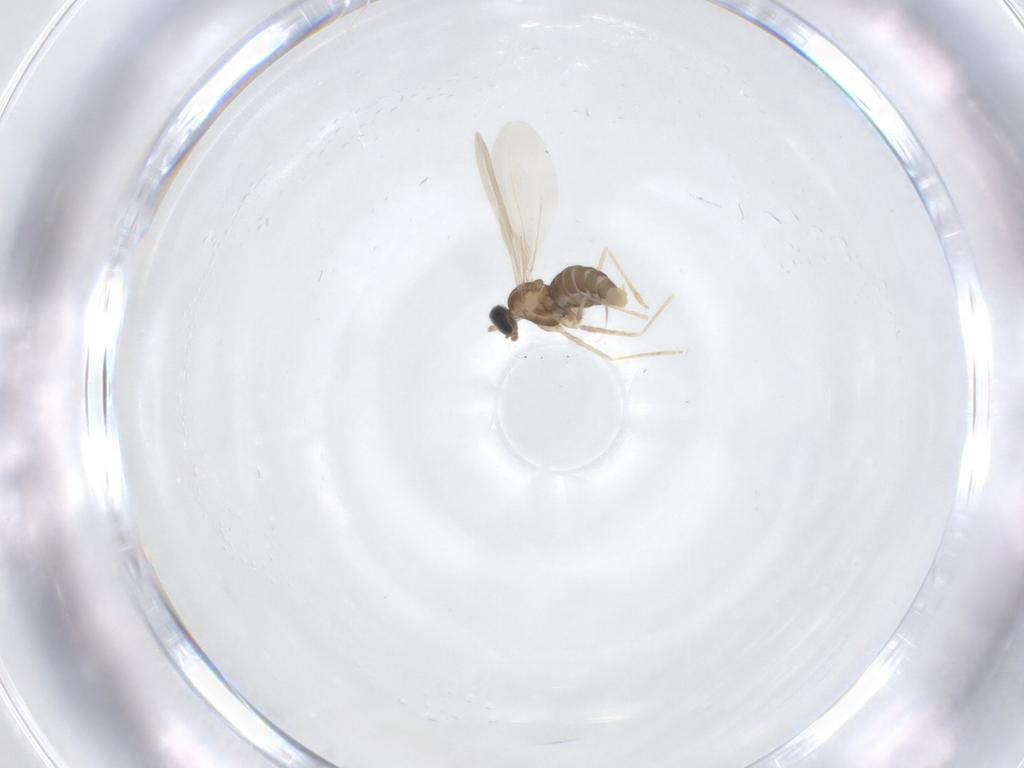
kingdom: Animalia
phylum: Arthropoda
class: Insecta
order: Diptera
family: Cecidomyiidae
